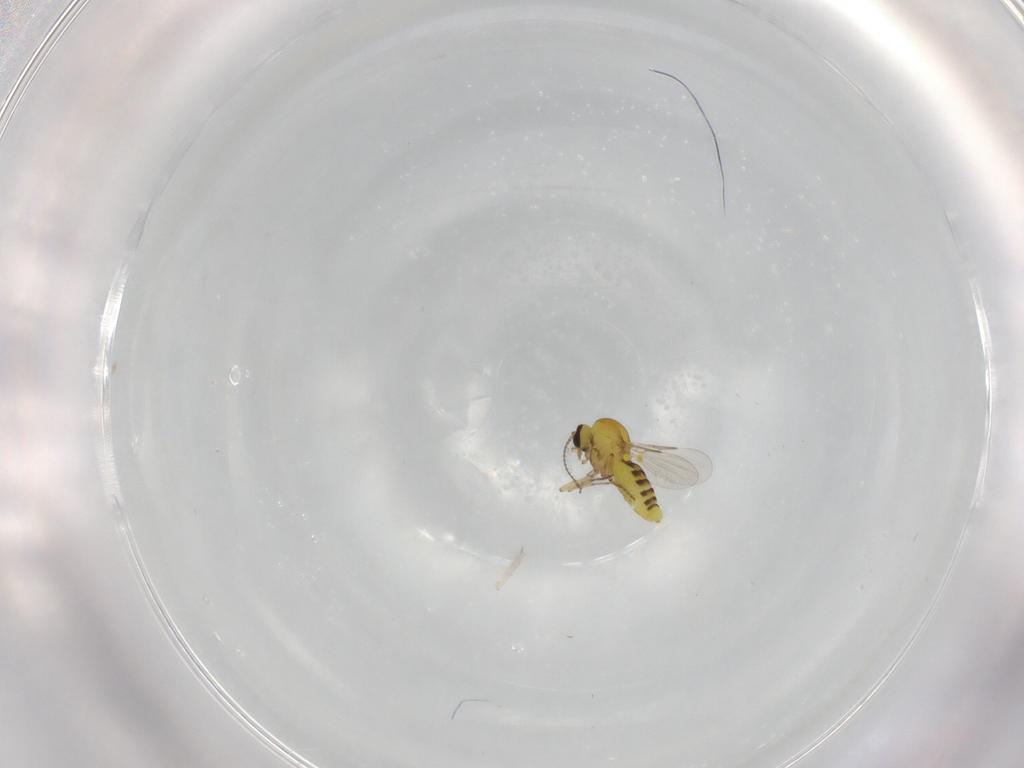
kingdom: Animalia
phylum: Arthropoda
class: Insecta
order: Diptera
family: Ceratopogonidae
